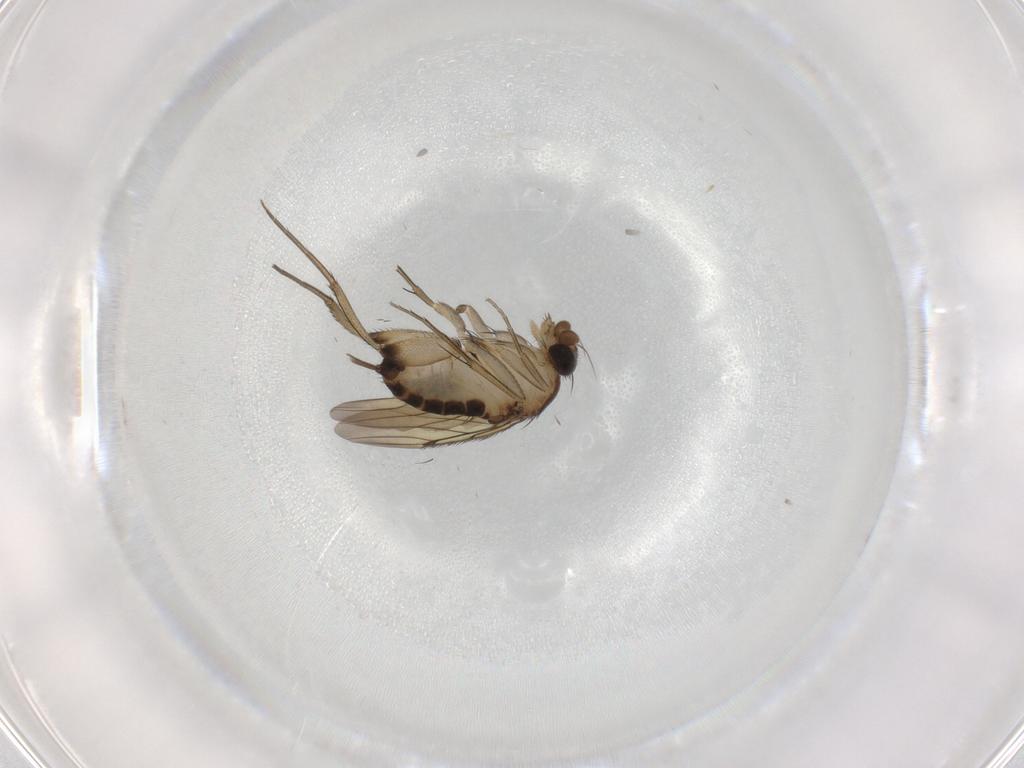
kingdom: Animalia
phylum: Arthropoda
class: Insecta
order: Diptera
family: Phoridae
